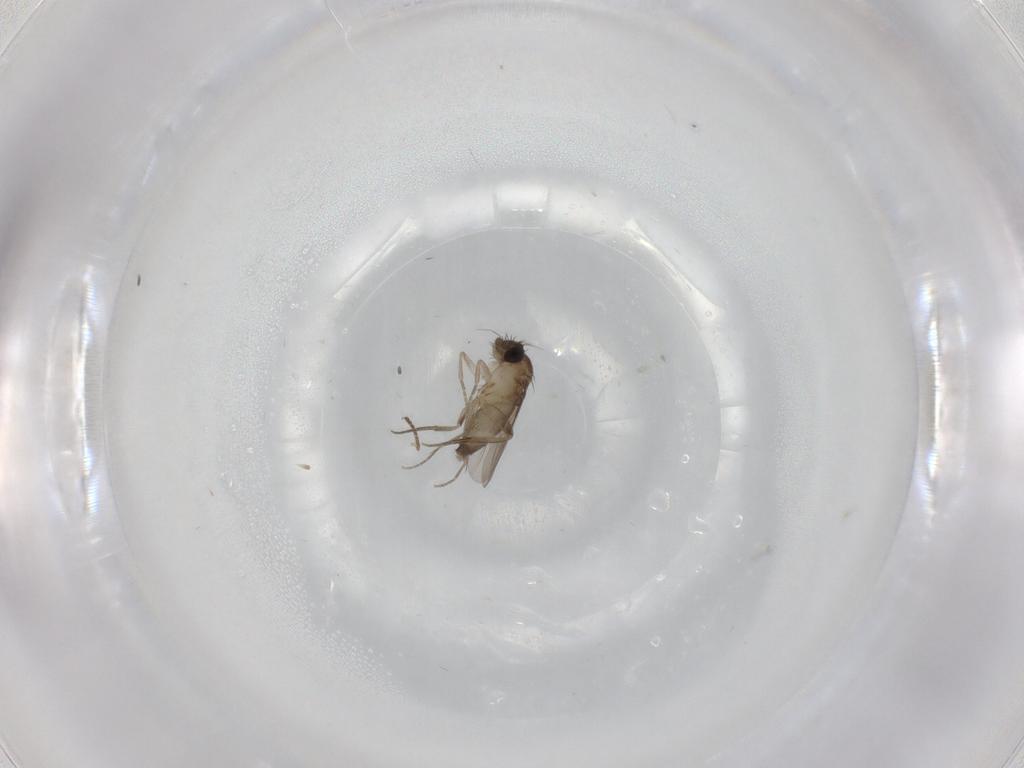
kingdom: Animalia
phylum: Arthropoda
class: Insecta
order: Diptera
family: Phoridae
